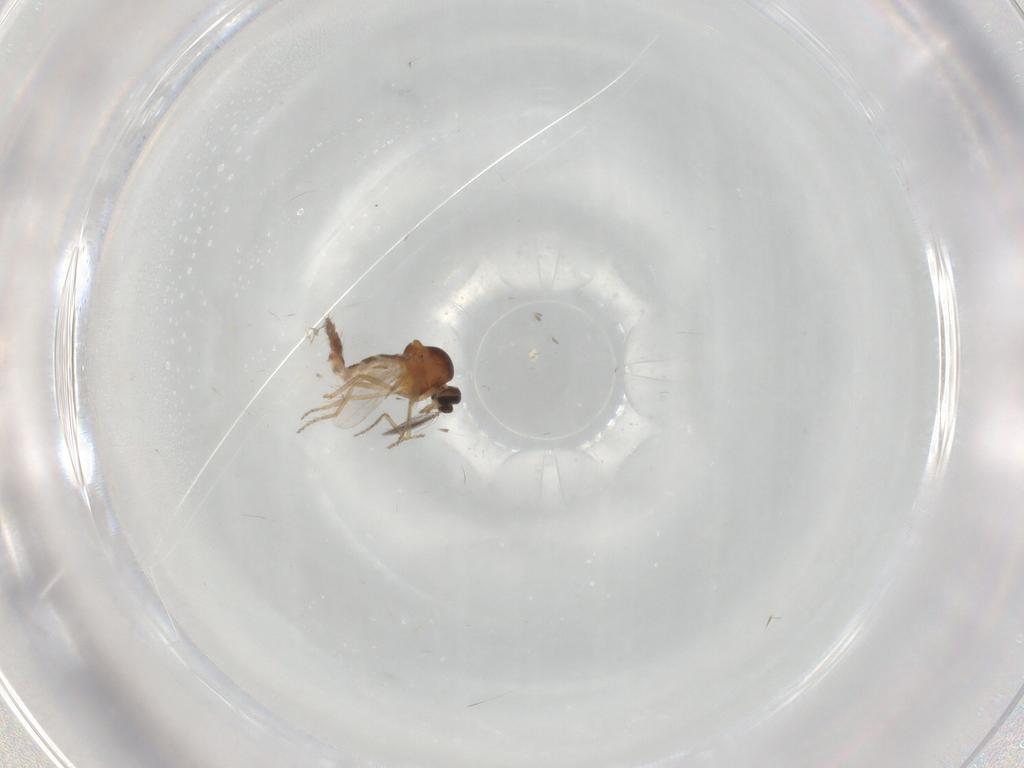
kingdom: Animalia
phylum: Arthropoda
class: Insecta
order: Diptera
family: Ceratopogonidae
